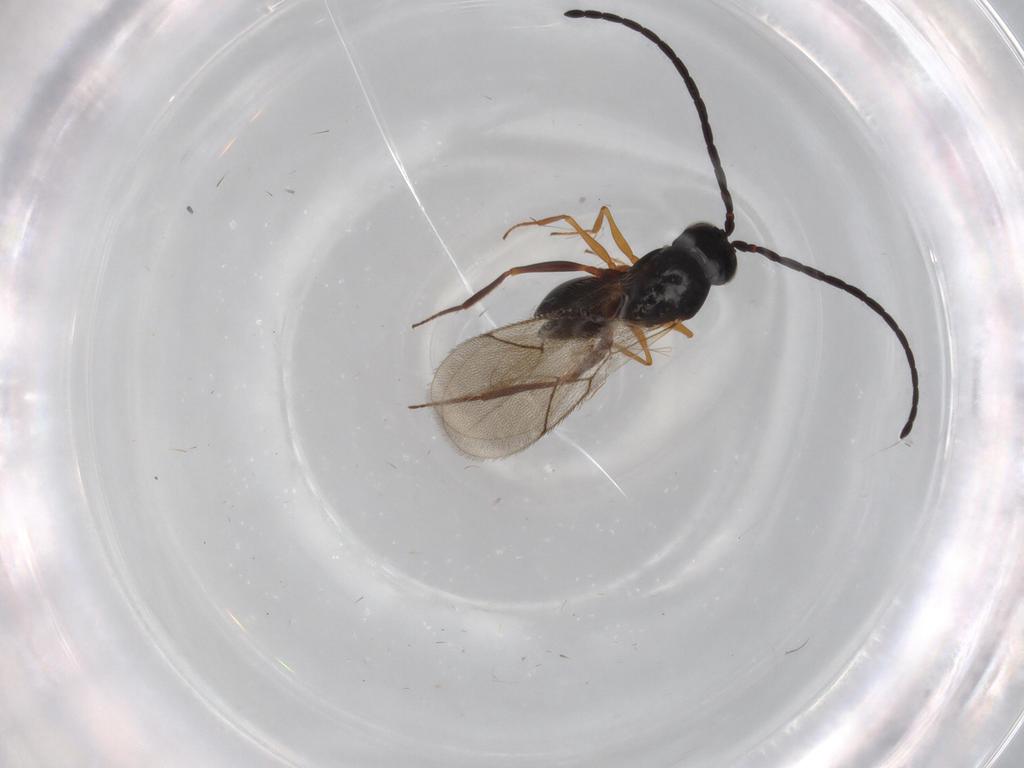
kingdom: Animalia
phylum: Arthropoda
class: Insecta
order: Hymenoptera
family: Figitidae
